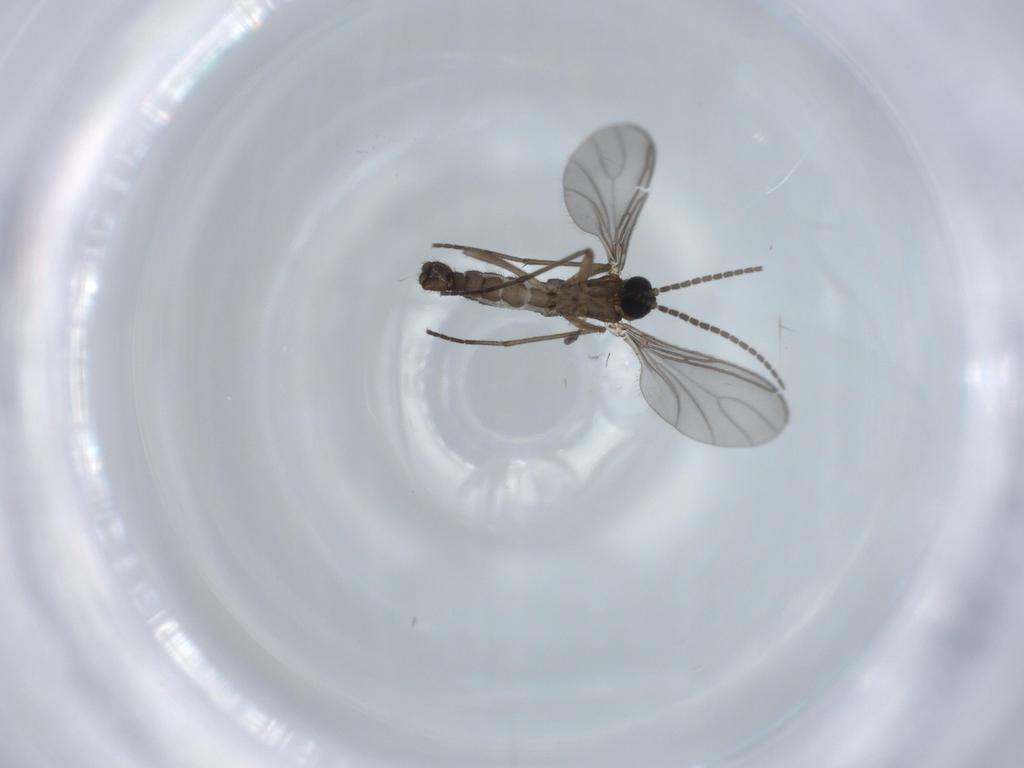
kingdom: Animalia
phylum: Arthropoda
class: Insecta
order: Diptera
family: Sciaridae
